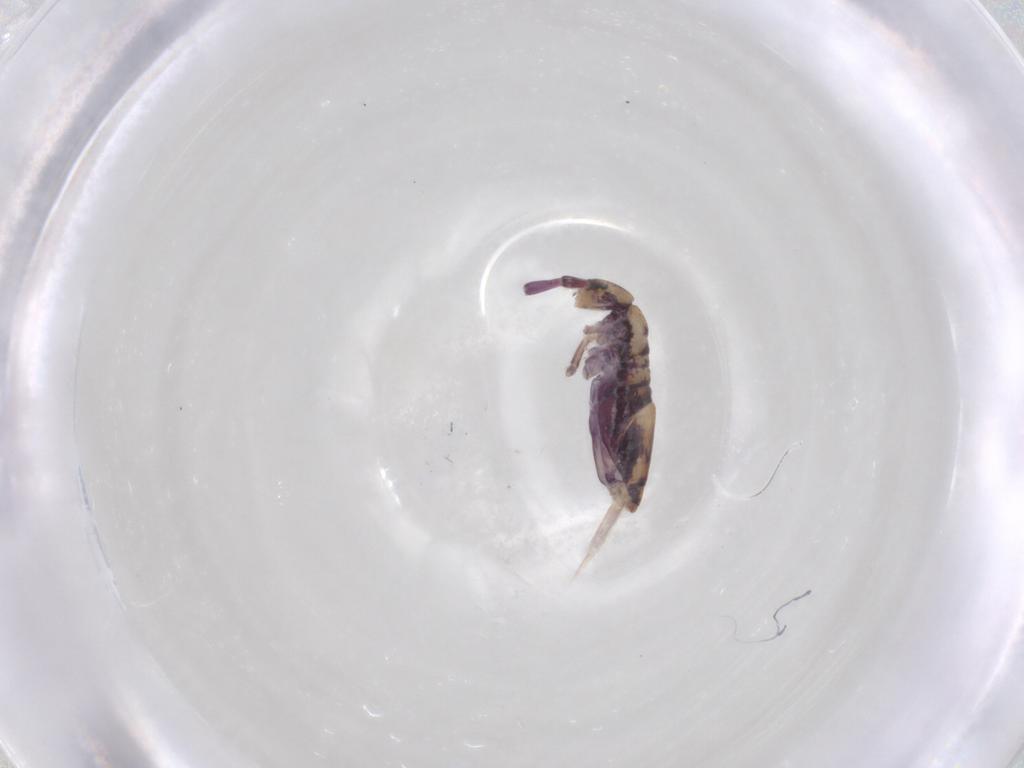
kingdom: Animalia
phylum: Arthropoda
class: Collembola
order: Entomobryomorpha
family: Entomobryidae
